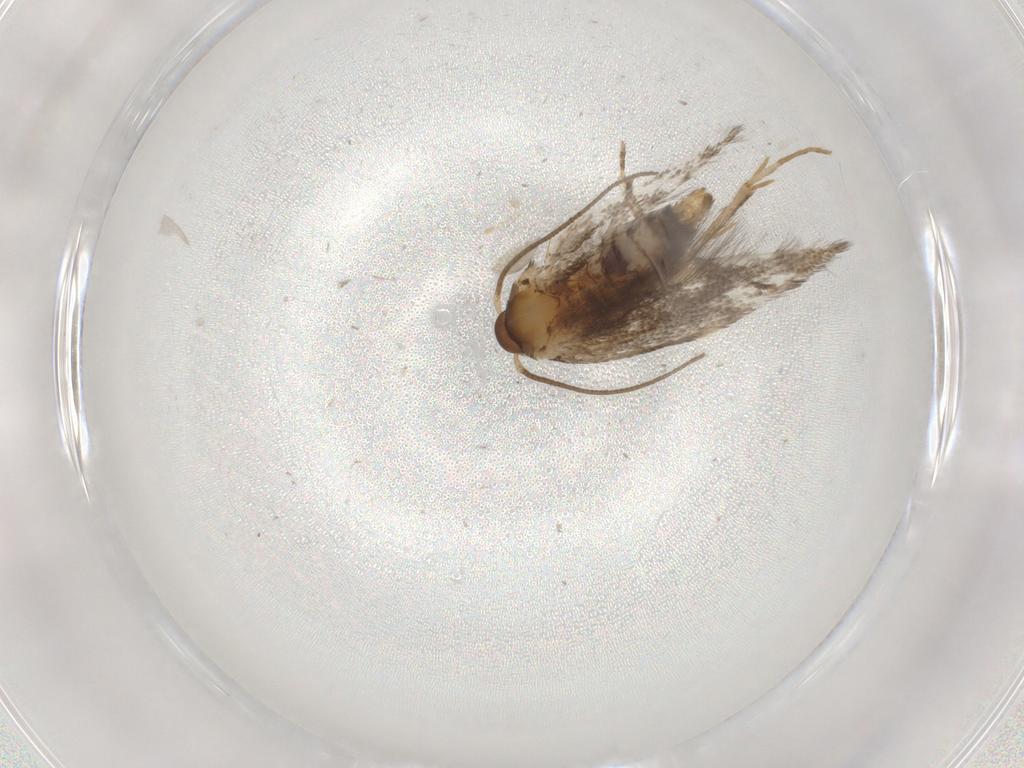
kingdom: Animalia
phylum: Arthropoda
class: Insecta
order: Lepidoptera
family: Elachistidae
